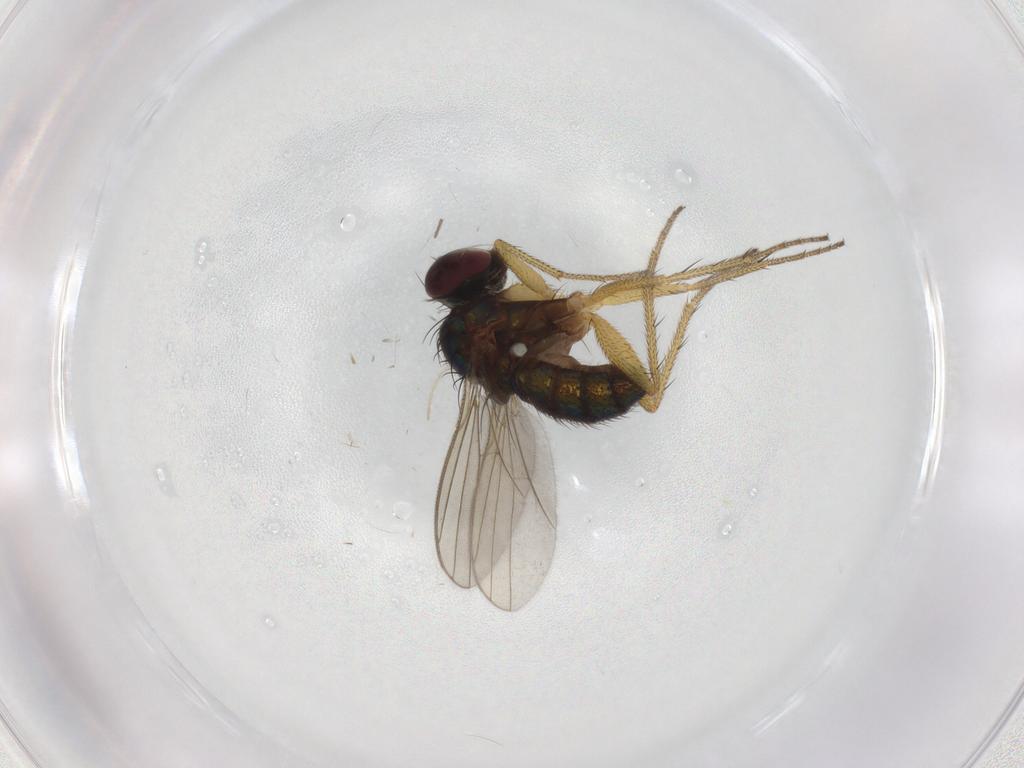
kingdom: Animalia
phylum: Arthropoda
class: Insecta
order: Diptera
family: Dolichopodidae
